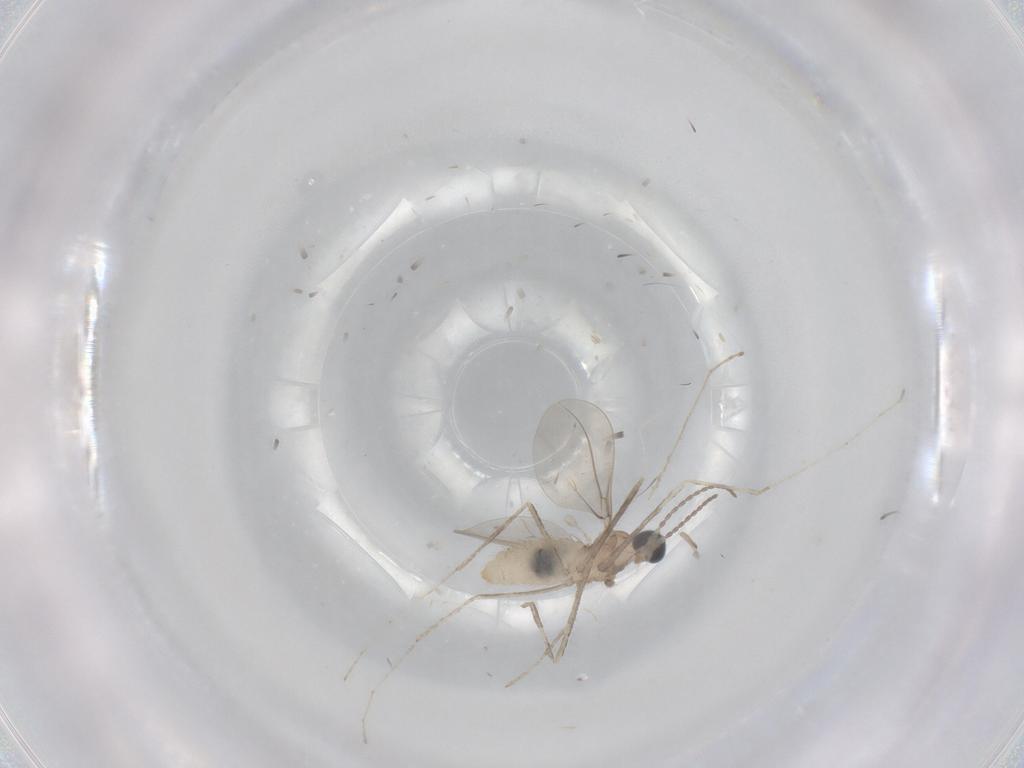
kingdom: Animalia
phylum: Arthropoda
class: Insecta
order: Diptera
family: Cecidomyiidae
